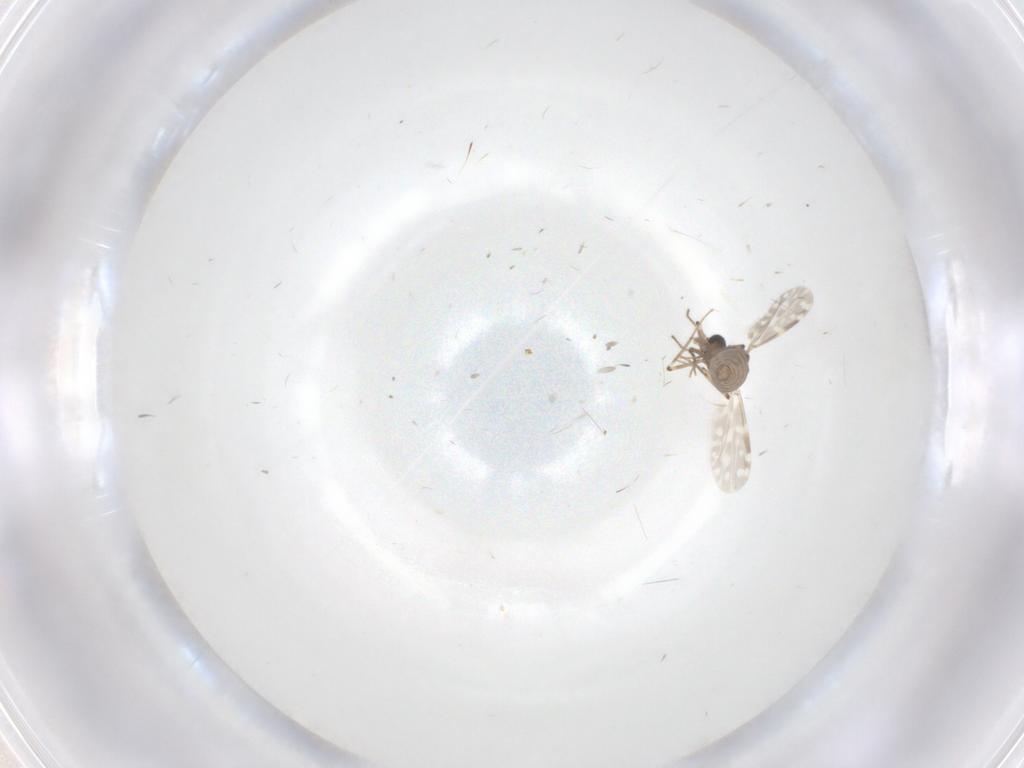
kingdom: Animalia
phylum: Arthropoda
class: Insecta
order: Diptera
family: Ceratopogonidae
